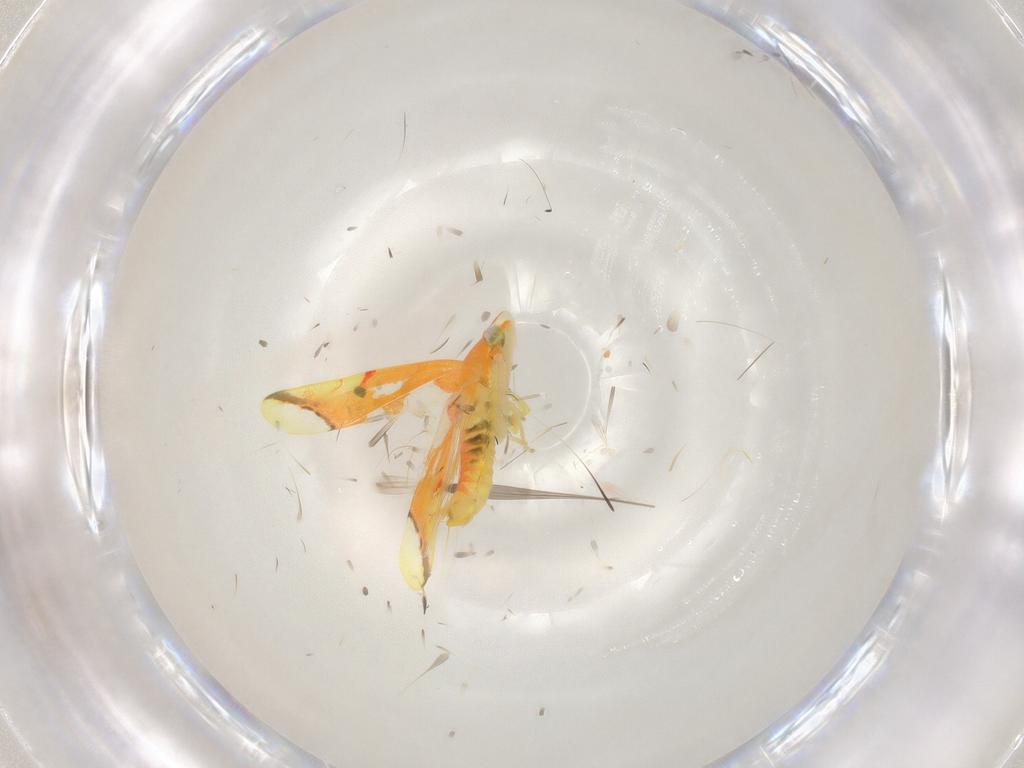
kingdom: Animalia
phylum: Arthropoda
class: Insecta
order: Hemiptera
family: Cicadellidae
